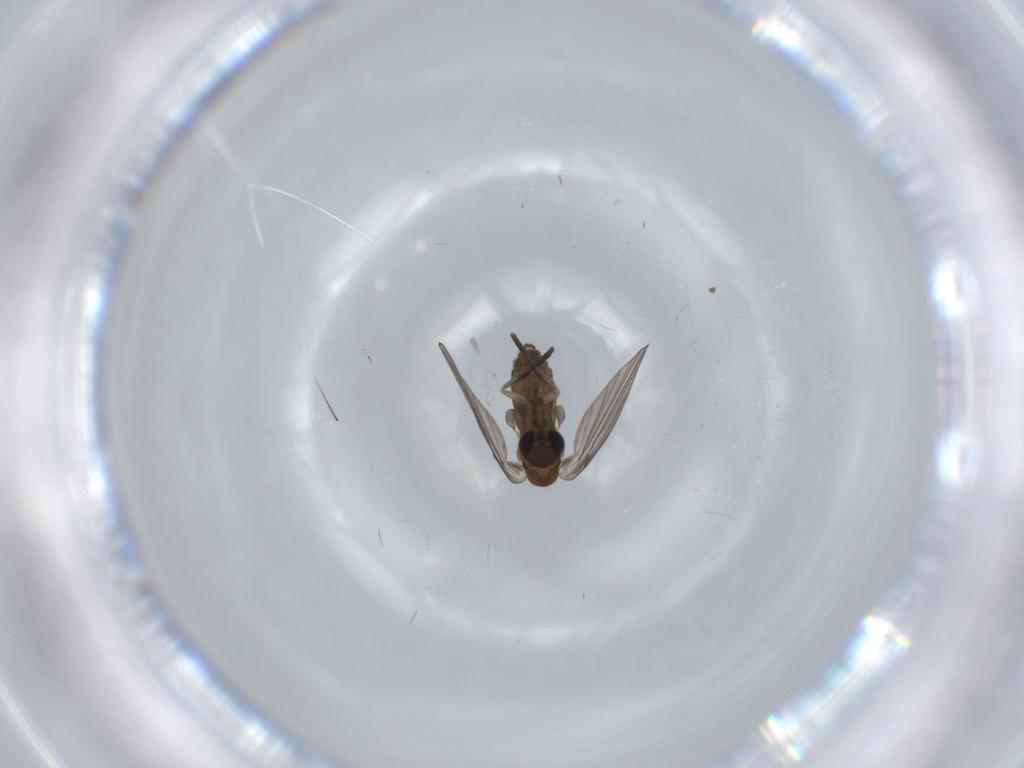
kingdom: Animalia
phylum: Arthropoda
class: Insecta
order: Diptera
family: Psychodidae
